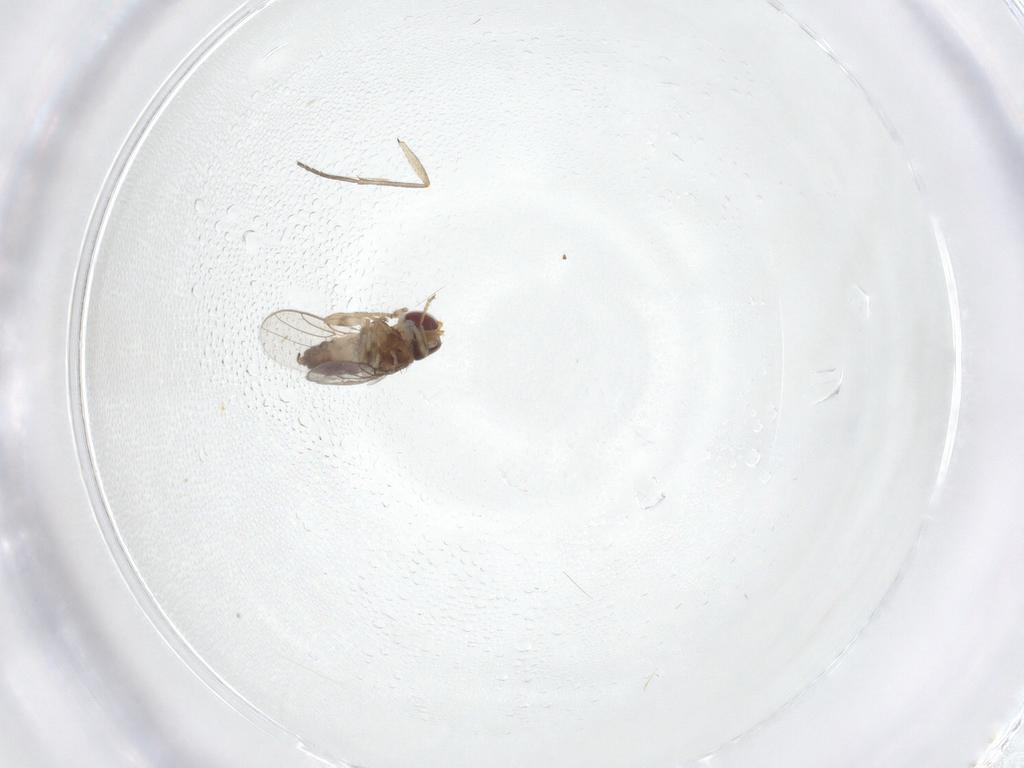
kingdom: Animalia
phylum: Arthropoda
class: Insecta
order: Diptera
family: Chloropidae
